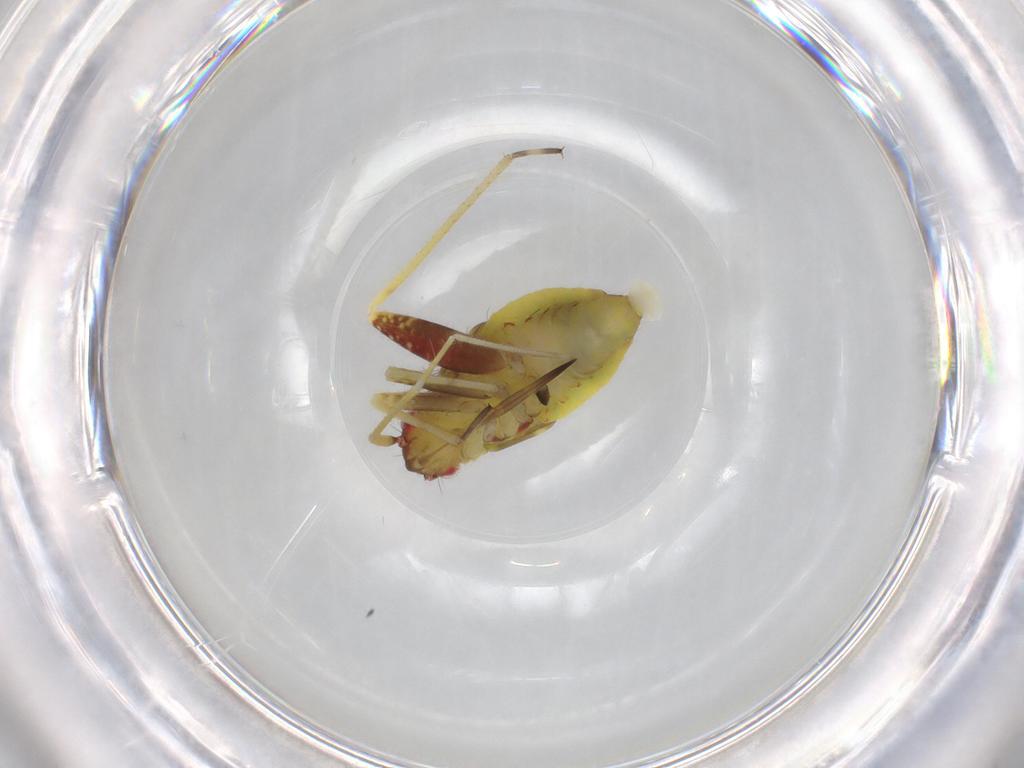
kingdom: Animalia
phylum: Arthropoda
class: Insecta
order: Hemiptera
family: Miridae
